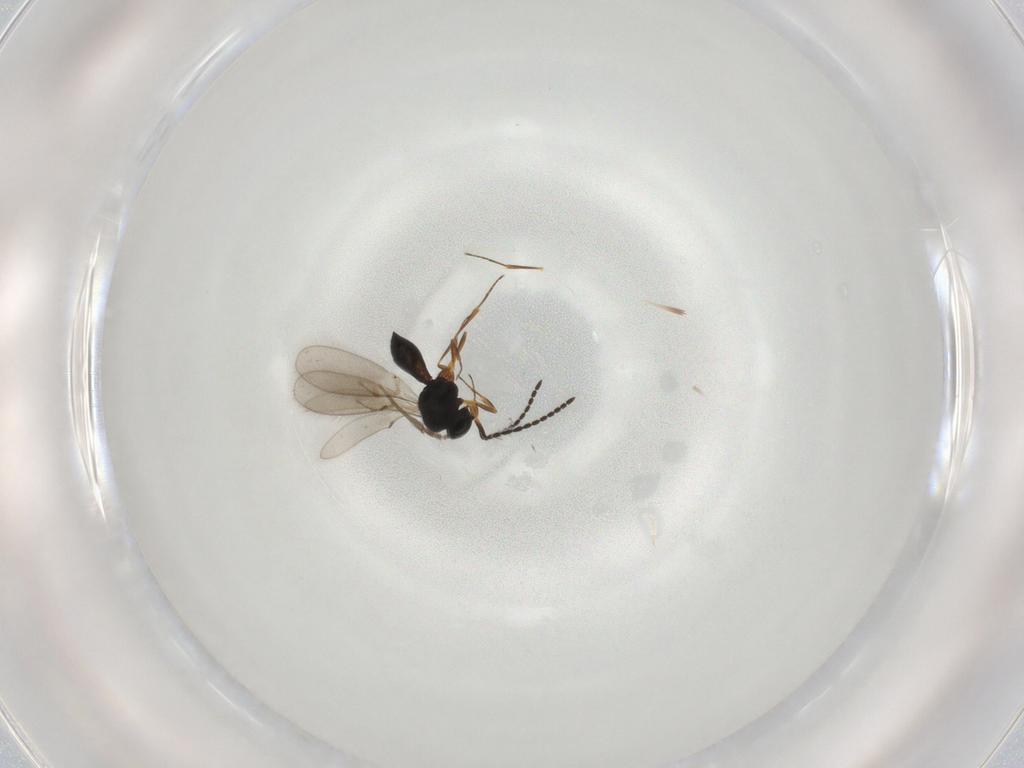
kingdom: Animalia
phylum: Arthropoda
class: Insecta
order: Hymenoptera
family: Scelionidae
